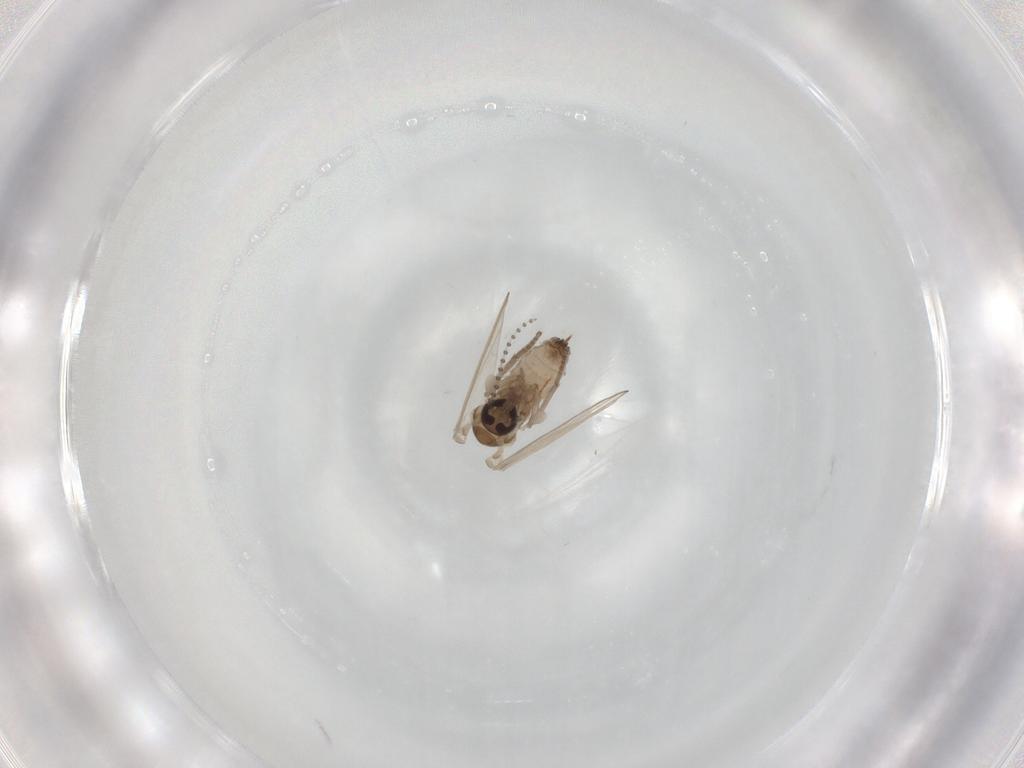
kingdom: Animalia
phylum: Arthropoda
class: Insecta
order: Diptera
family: Psychodidae
